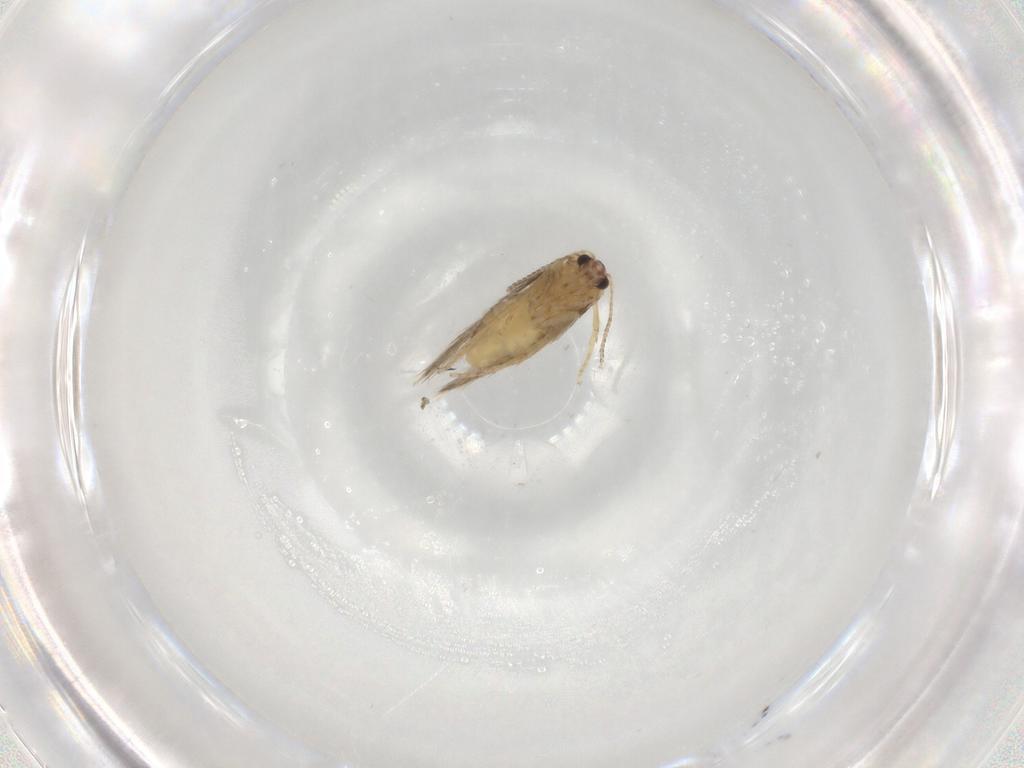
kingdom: Animalia
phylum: Arthropoda
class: Insecta
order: Lepidoptera
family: Nepticulidae
